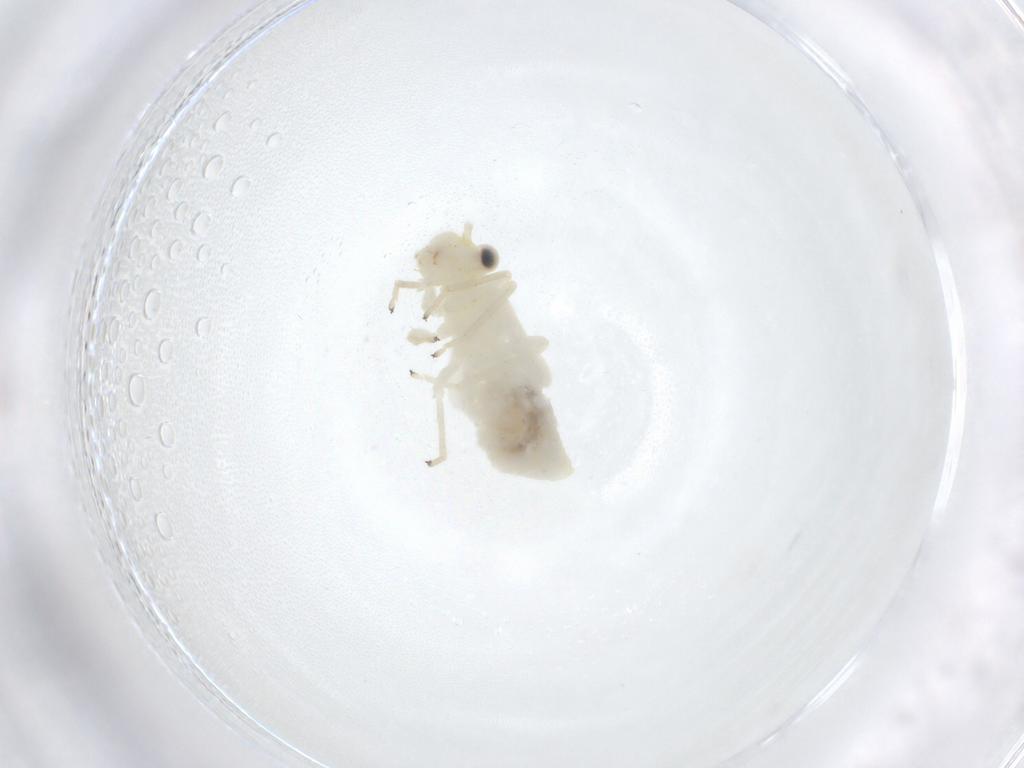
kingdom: Animalia
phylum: Arthropoda
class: Insecta
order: Psocodea
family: Caeciliusidae
